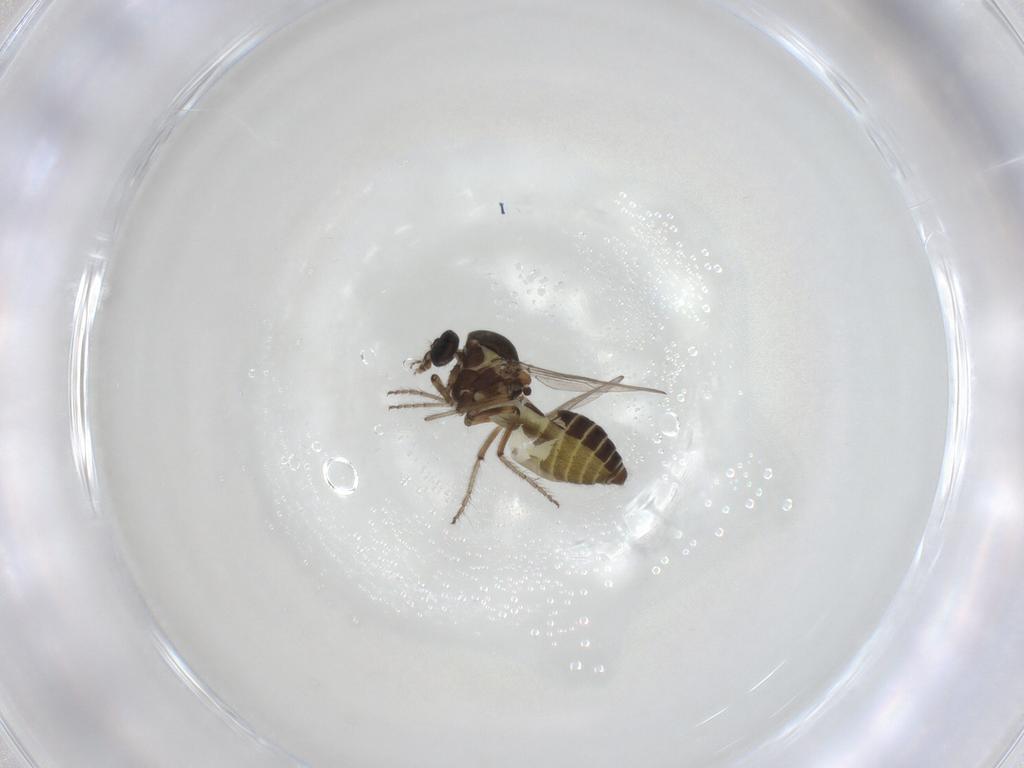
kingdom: Animalia
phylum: Arthropoda
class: Insecta
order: Diptera
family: Ceratopogonidae
